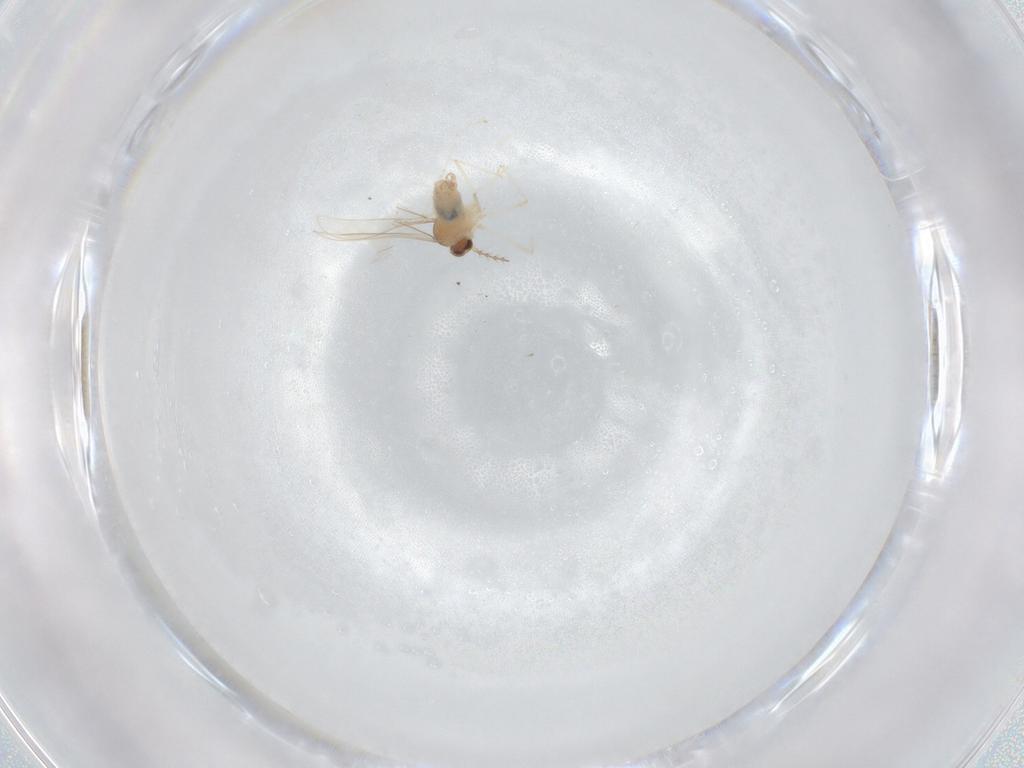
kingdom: Animalia
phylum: Arthropoda
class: Insecta
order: Diptera
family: Cecidomyiidae
